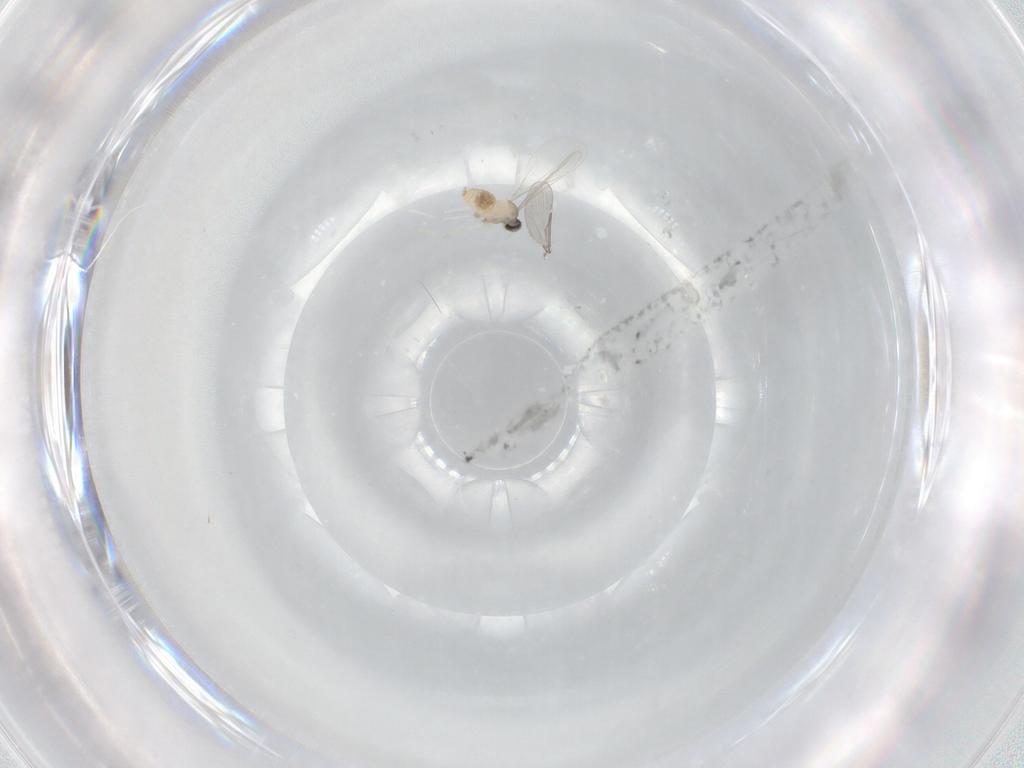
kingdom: Animalia
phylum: Arthropoda
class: Insecta
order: Diptera
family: Cecidomyiidae
